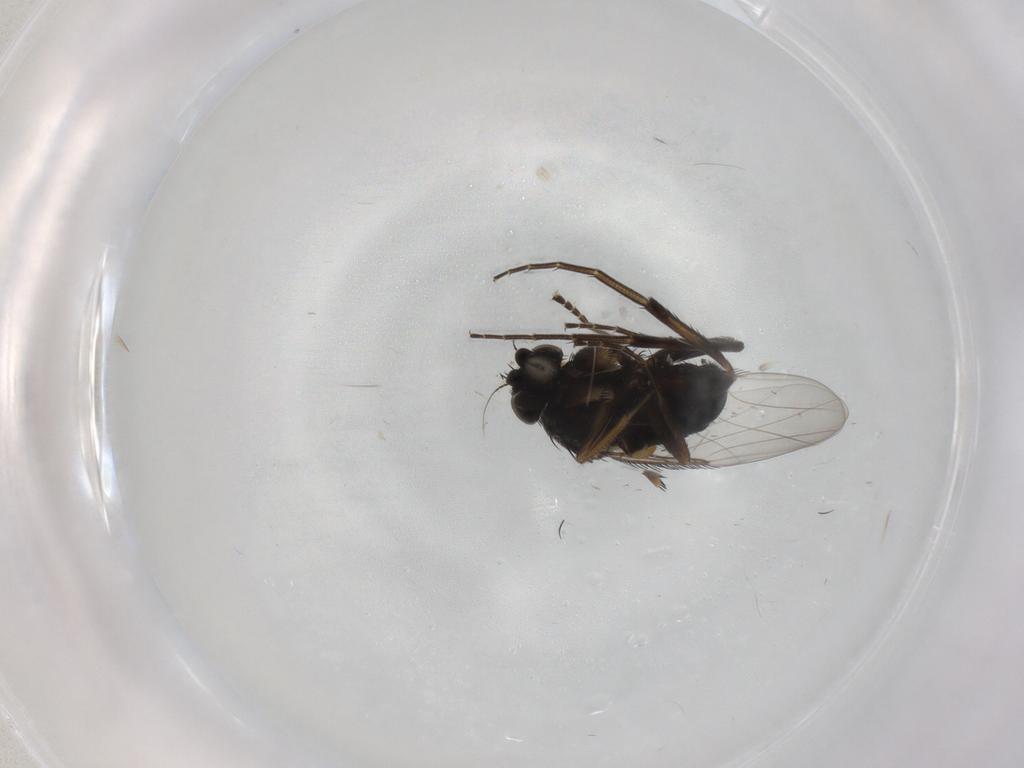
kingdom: Animalia
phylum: Arthropoda
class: Insecta
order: Diptera
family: Phoridae
